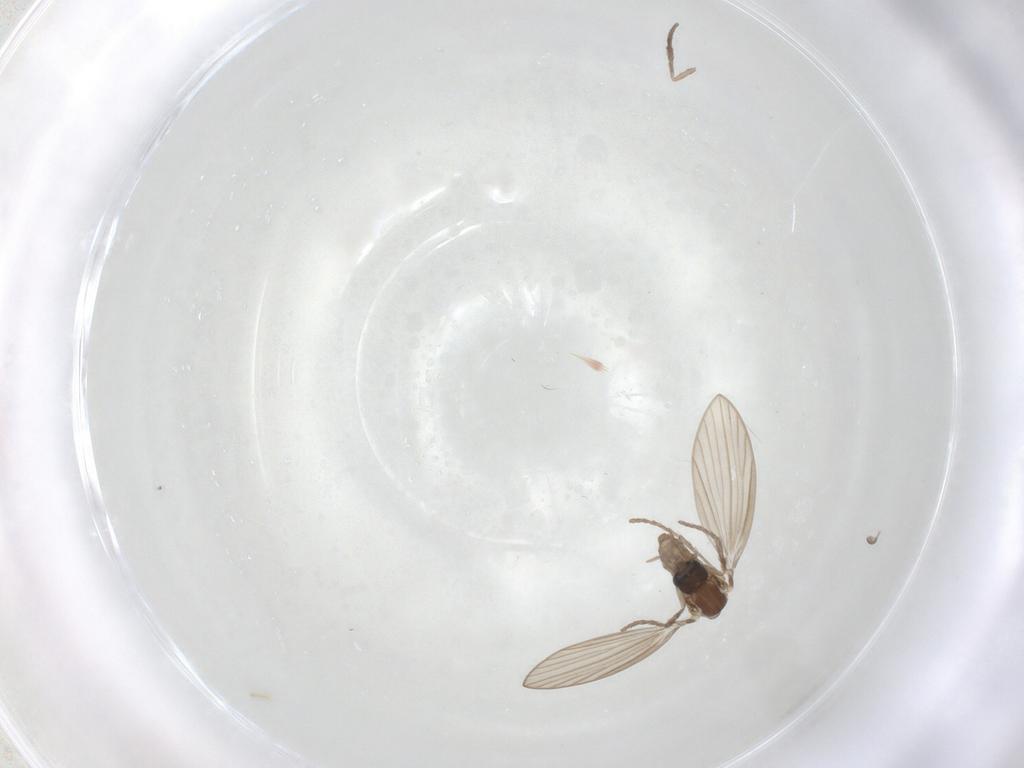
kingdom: Animalia
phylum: Arthropoda
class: Insecta
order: Diptera
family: Psychodidae
